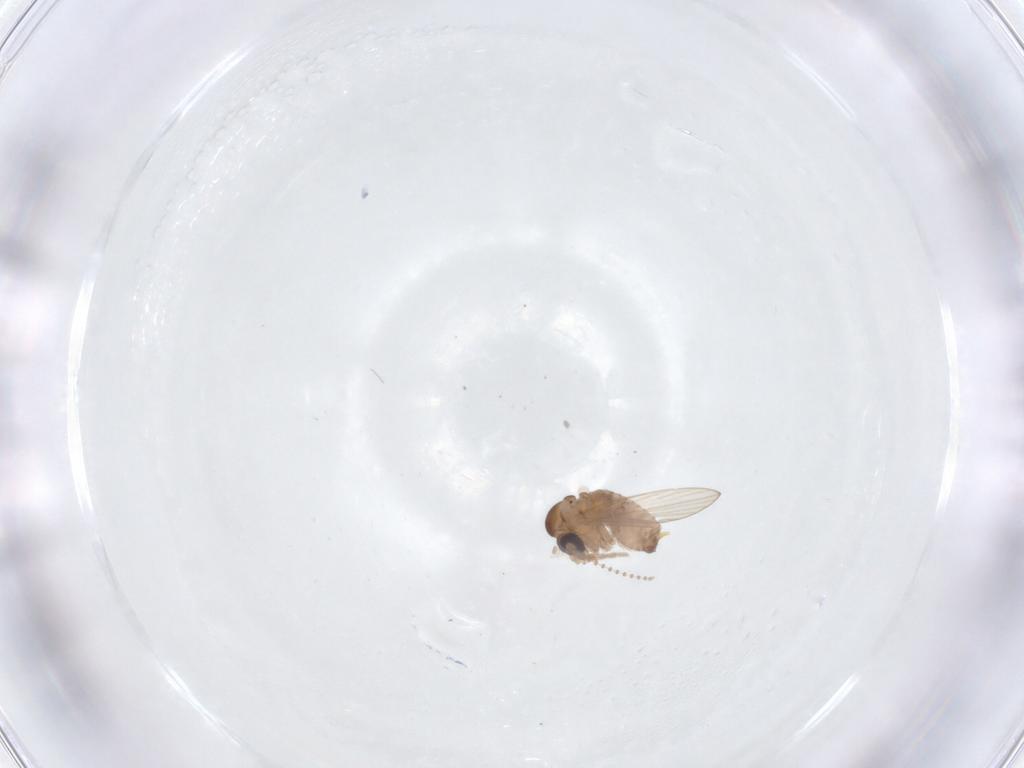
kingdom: Animalia
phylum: Arthropoda
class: Insecta
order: Diptera
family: Psychodidae
